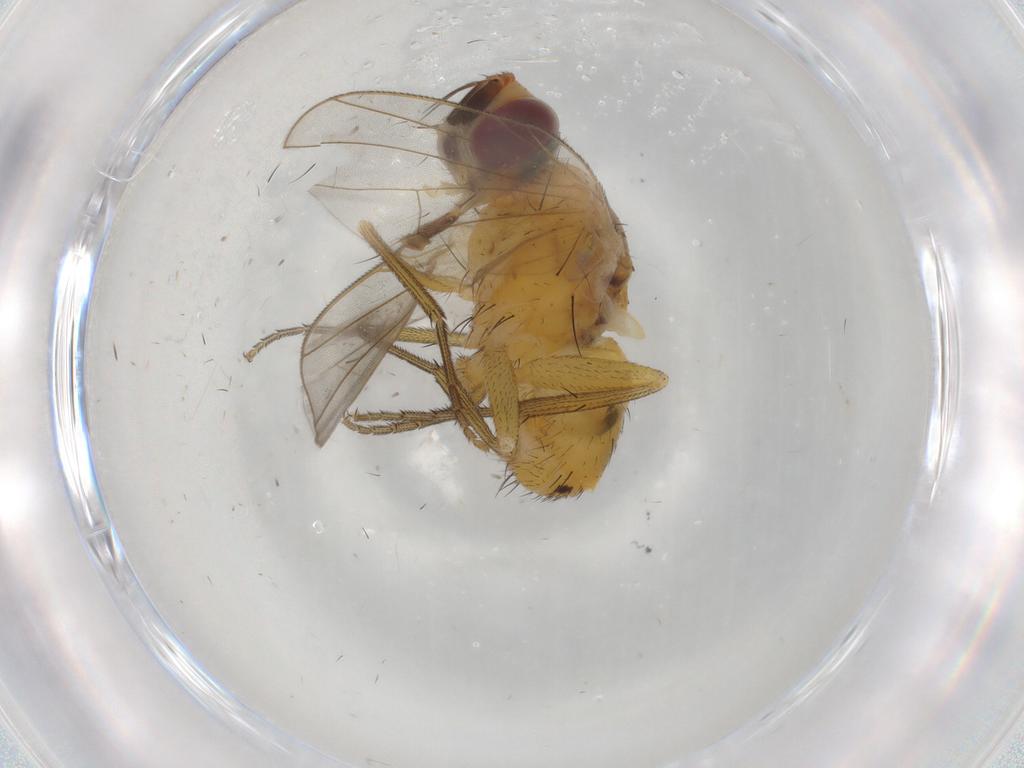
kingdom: Animalia
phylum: Arthropoda
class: Insecta
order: Diptera
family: Muscidae
